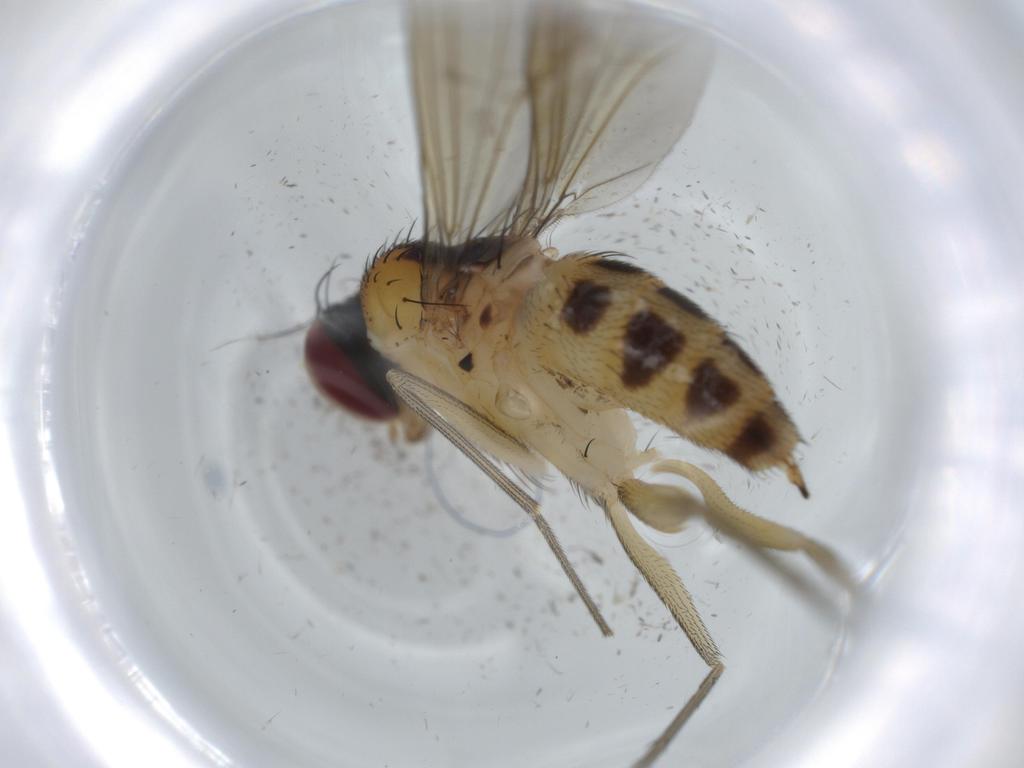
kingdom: Animalia
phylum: Arthropoda
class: Insecta
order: Diptera
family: Dolichopodidae
